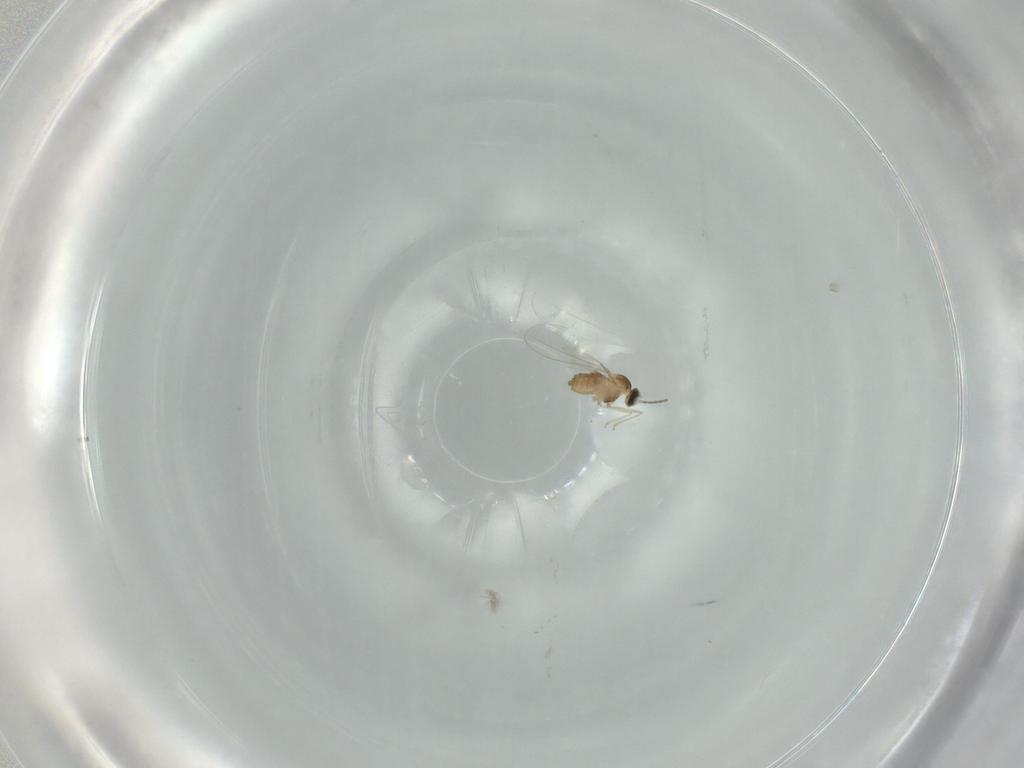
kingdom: Animalia
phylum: Arthropoda
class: Insecta
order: Diptera
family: Cecidomyiidae
